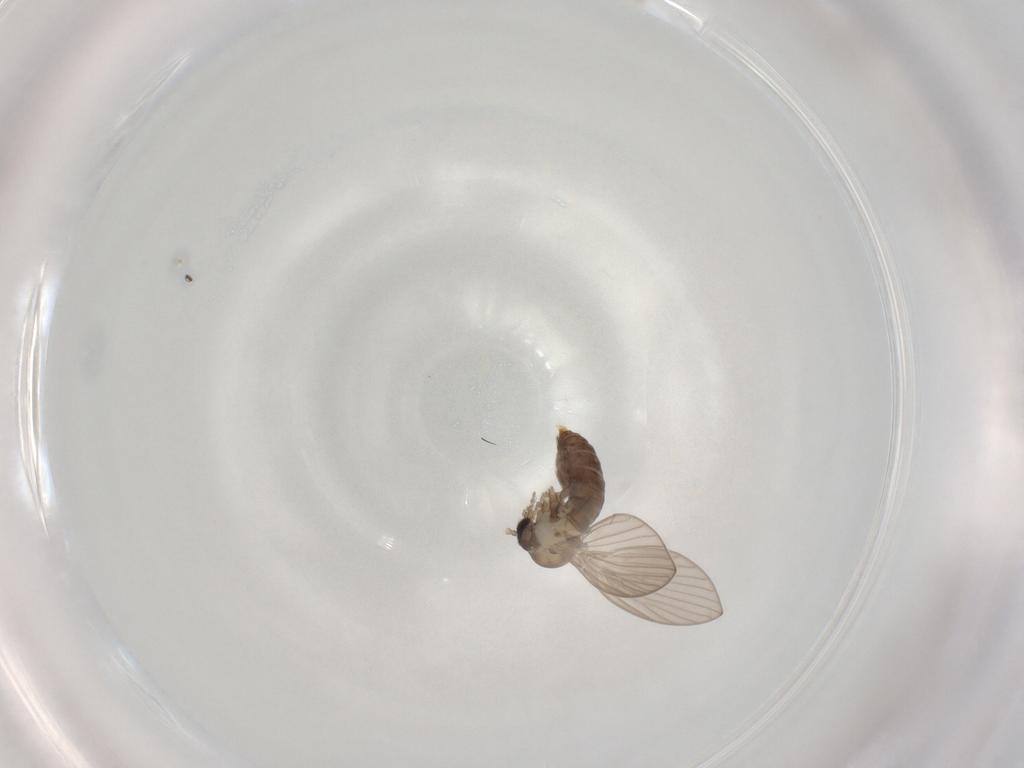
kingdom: Animalia
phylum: Arthropoda
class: Insecta
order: Diptera
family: Psychodidae
